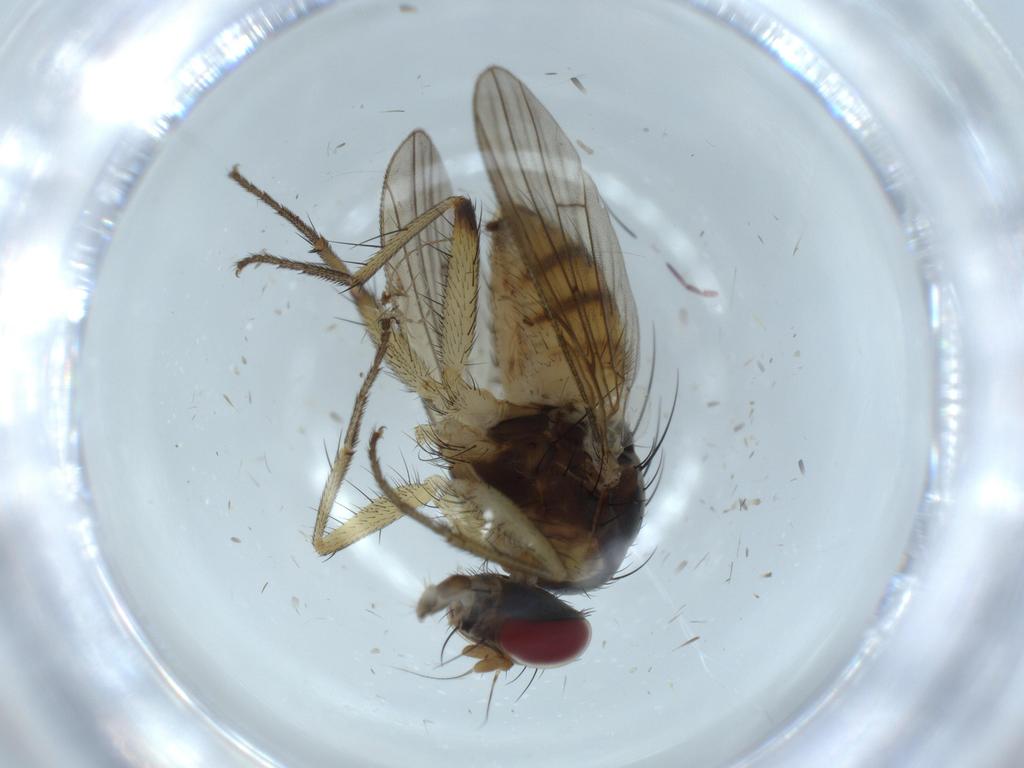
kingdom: Animalia
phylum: Arthropoda
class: Insecta
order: Diptera
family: Muscidae
